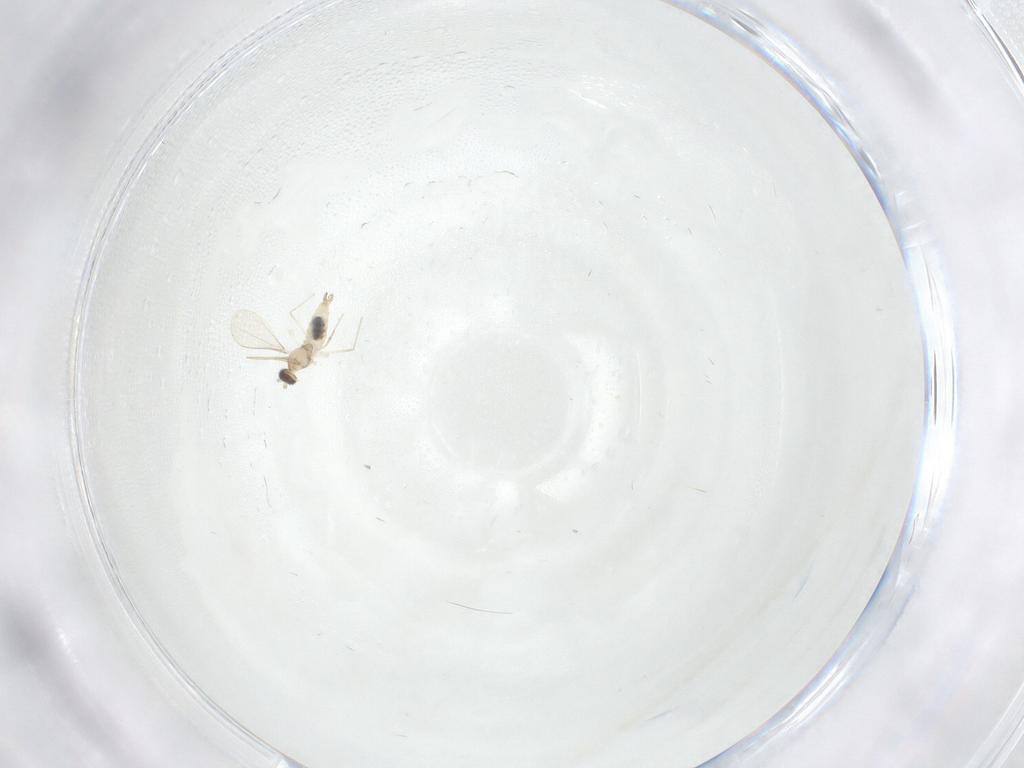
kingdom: Animalia
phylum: Arthropoda
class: Insecta
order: Diptera
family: Cecidomyiidae
